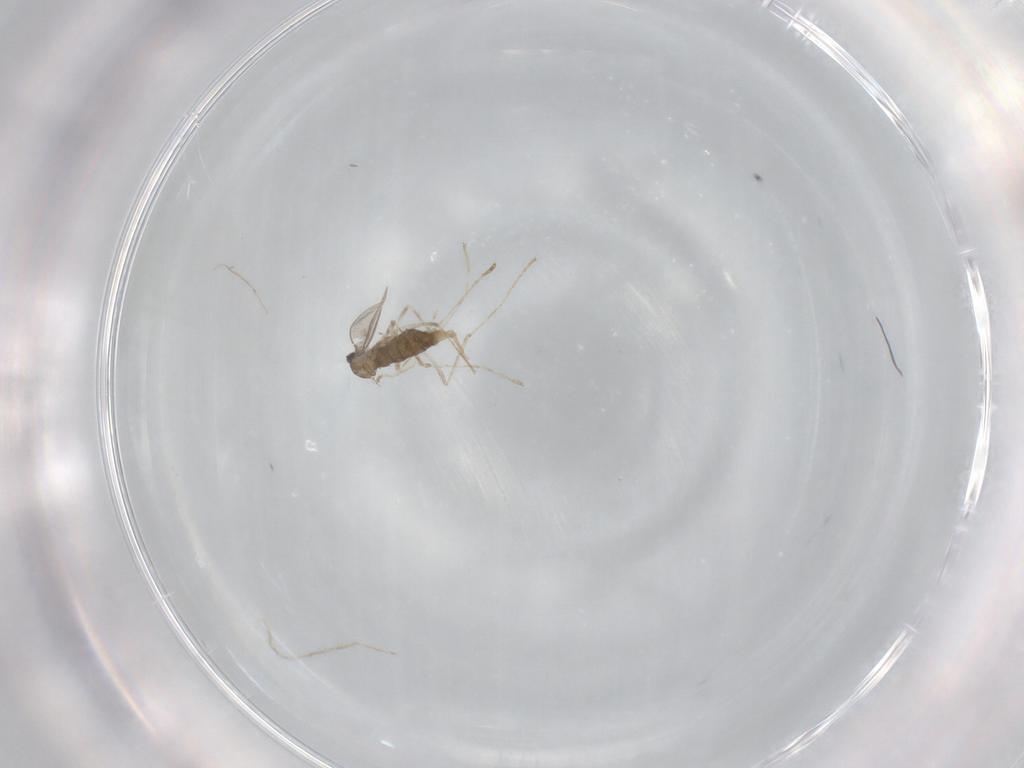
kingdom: Animalia
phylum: Arthropoda
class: Insecta
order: Diptera
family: Cecidomyiidae
